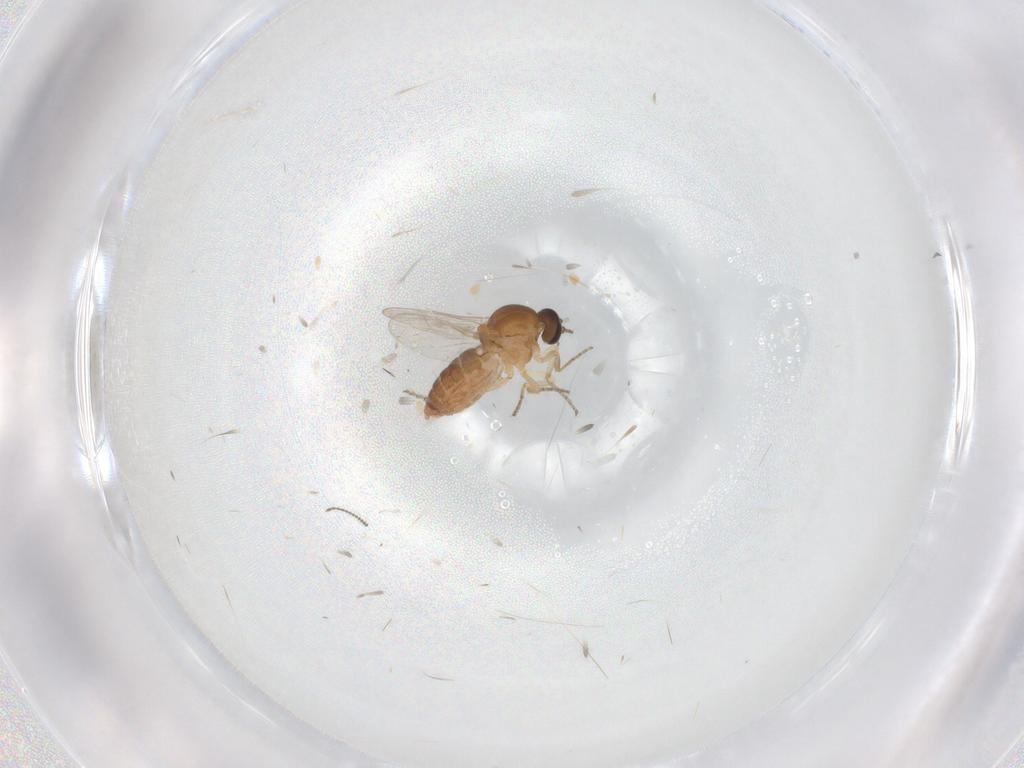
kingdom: Animalia
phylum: Arthropoda
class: Insecta
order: Diptera
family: Ceratopogonidae
